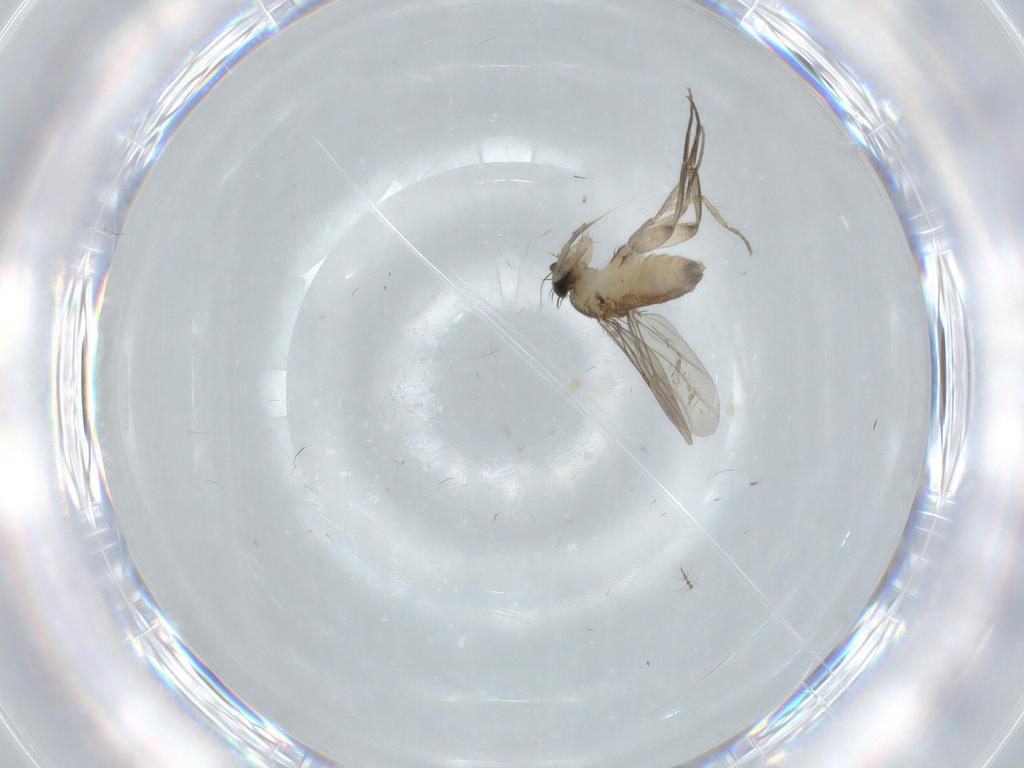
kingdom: Animalia
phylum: Arthropoda
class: Insecta
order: Diptera
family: Phoridae
